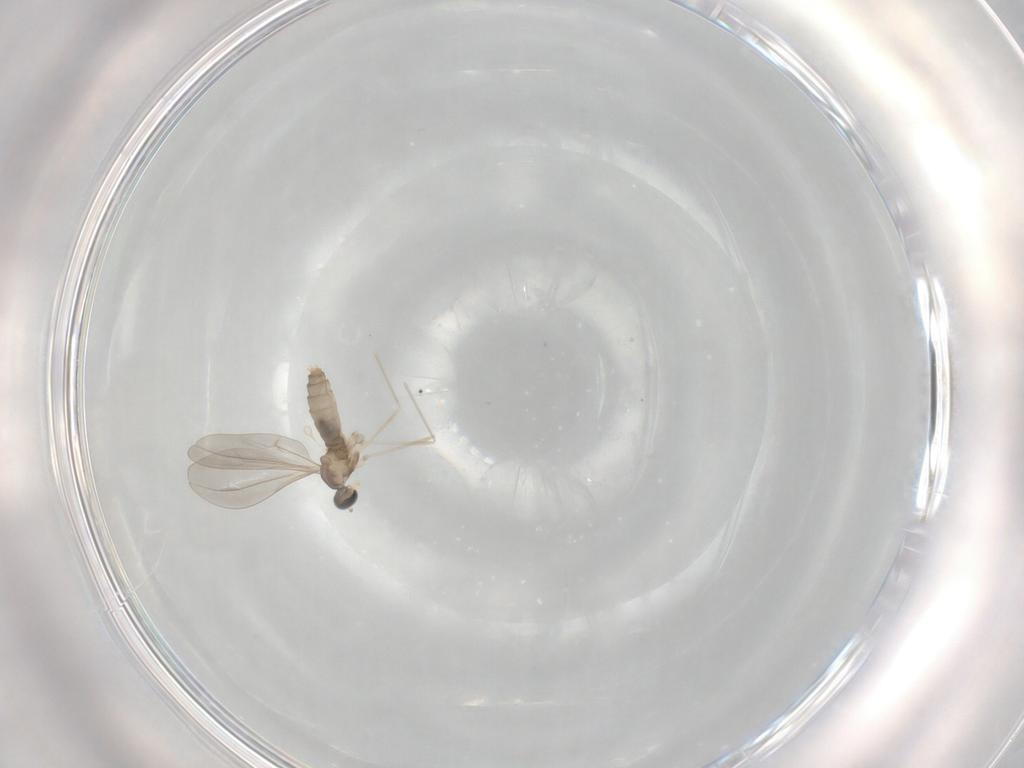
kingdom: Animalia
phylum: Arthropoda
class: Insecta
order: Diptera
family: Cecidomyiidae
